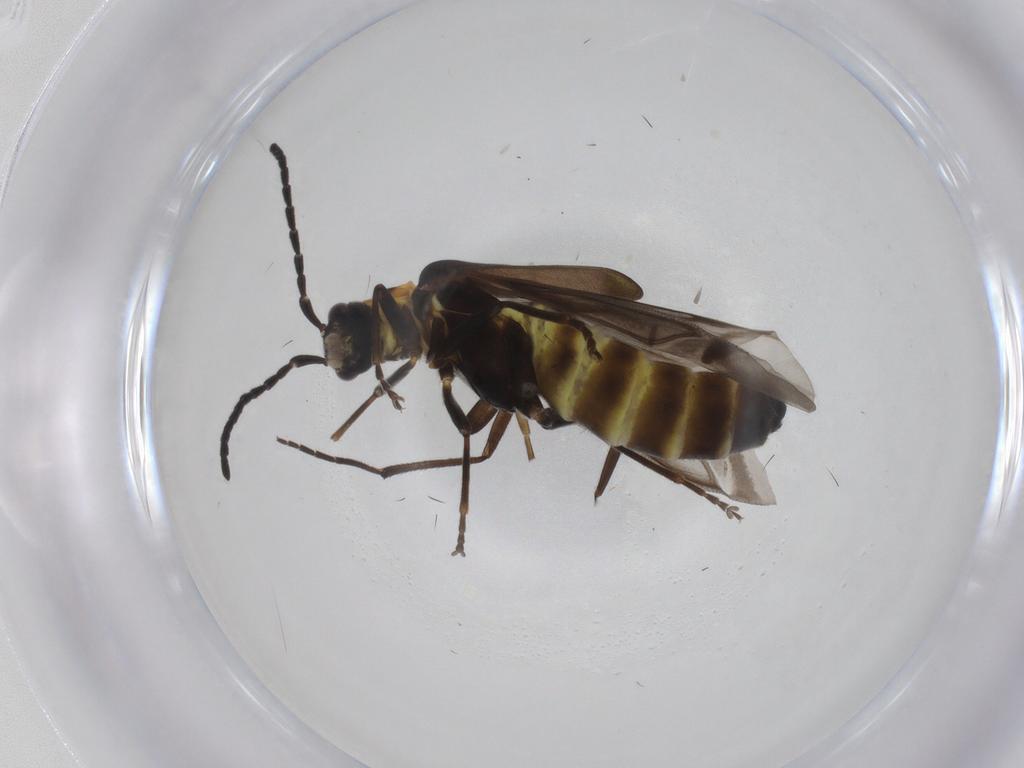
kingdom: Animalia
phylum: Arthropoda
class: Insecta
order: Coleoptera
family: Cantharidae
